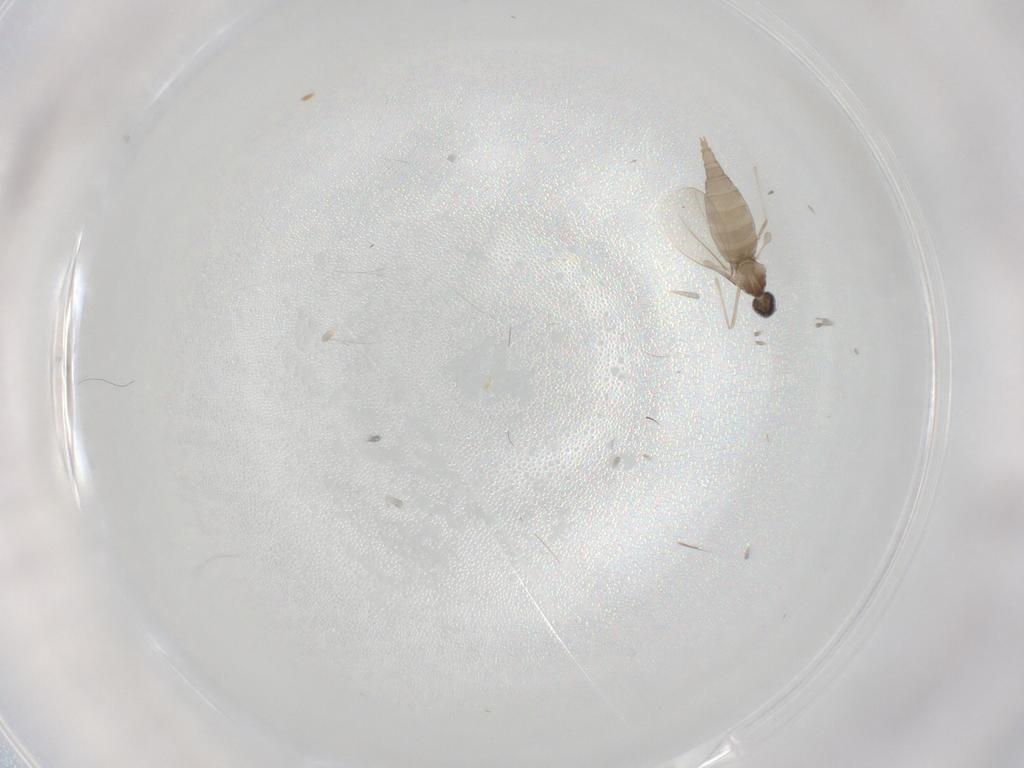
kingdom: Animalia
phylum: Arthropoda
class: Insecta
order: Diptera
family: Cecidomyiidae
